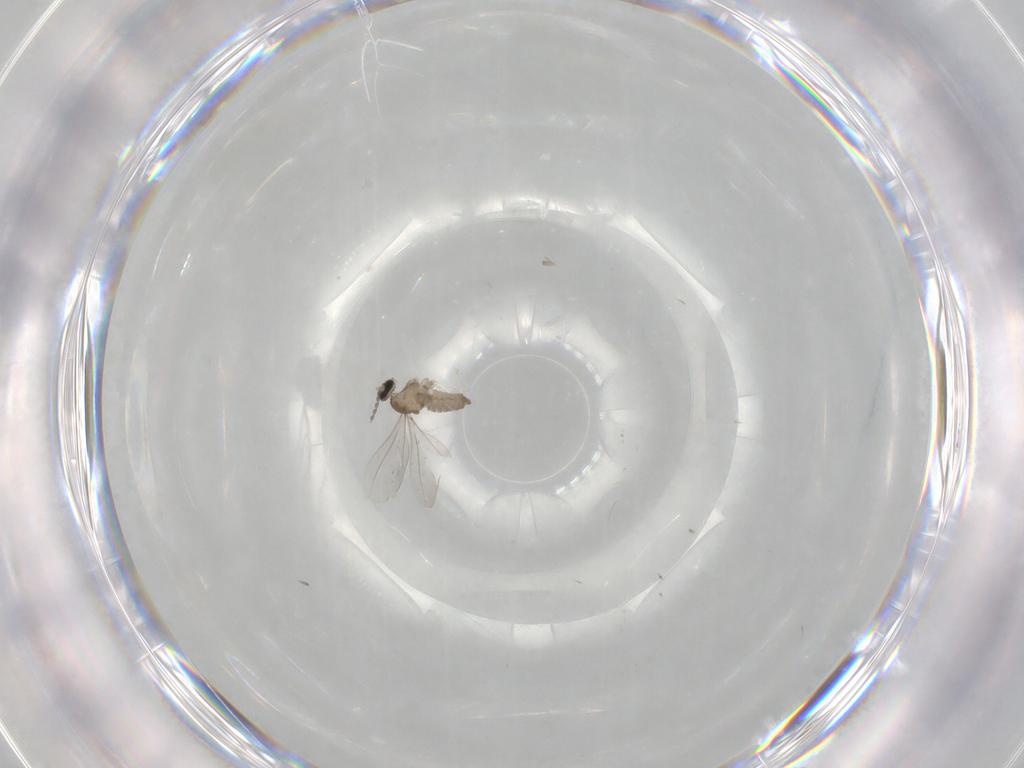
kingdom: Animalia
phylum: Arthropoda
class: Insecta
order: Diptera
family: Cecidomyiidae
